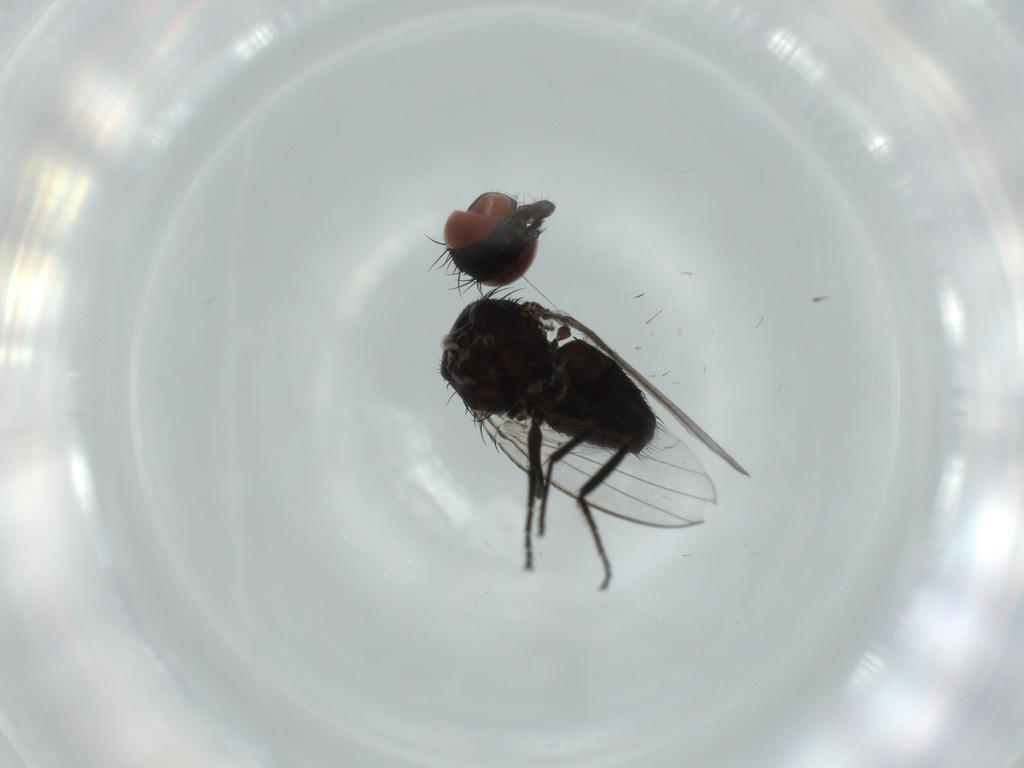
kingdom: Animalia
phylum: Arthropoda
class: Insecta
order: Diptera
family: Milichiidae
